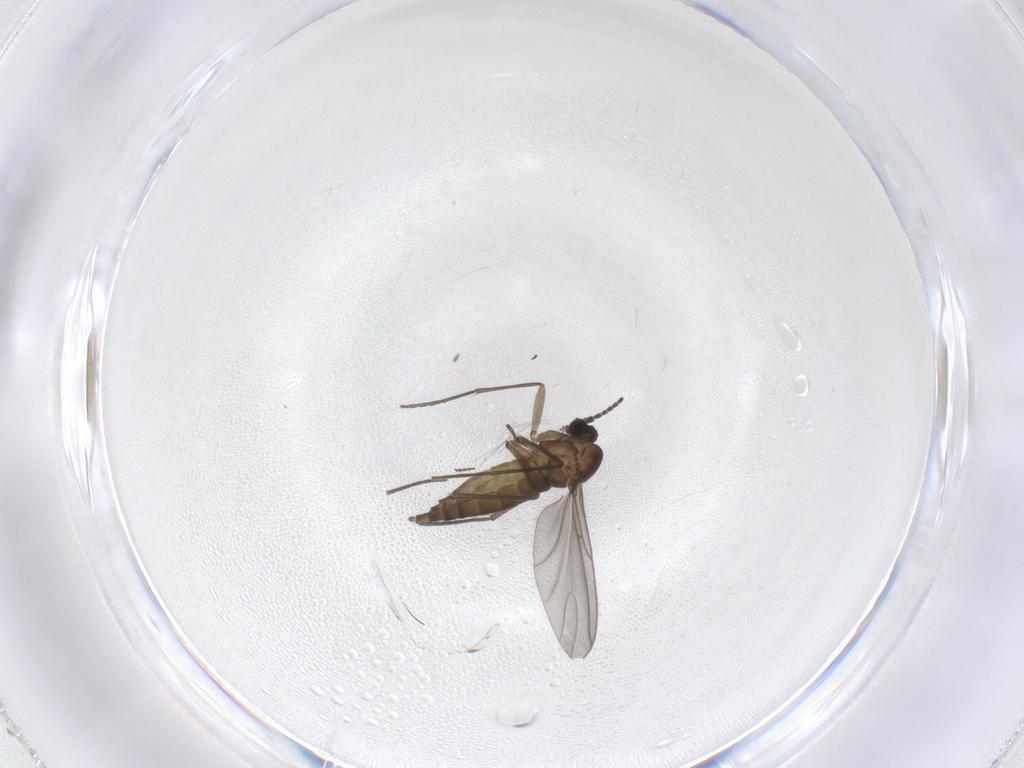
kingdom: Animalia
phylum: Arthropoda
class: Insecta
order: Diptera
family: Sciaridae
